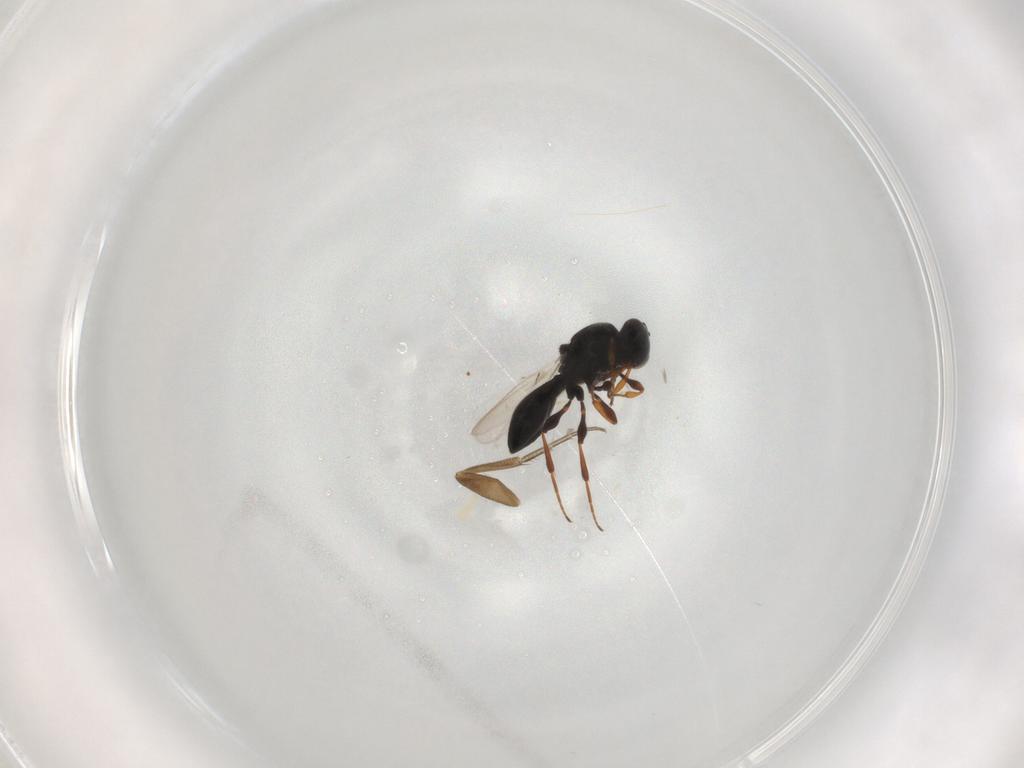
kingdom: Animalia
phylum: Arthropoda
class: Insecta
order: Hymenoptera
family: Platygastridae
